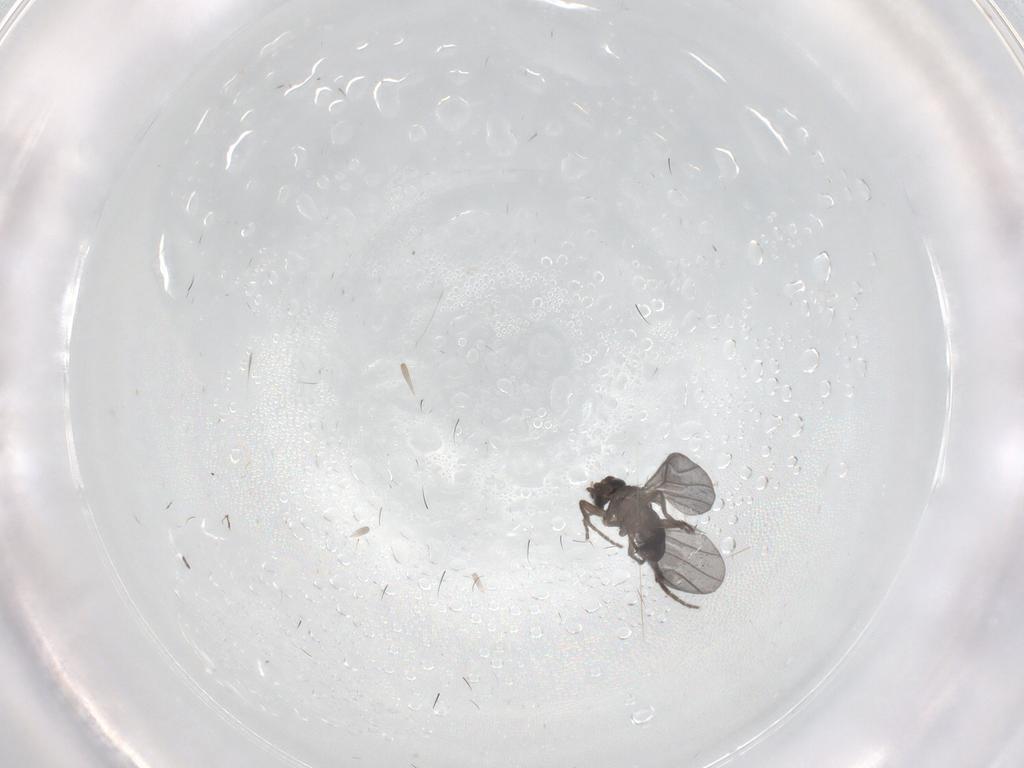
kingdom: Animalia
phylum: Arthropoda
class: Insecta
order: Diptera
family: Phoridae
